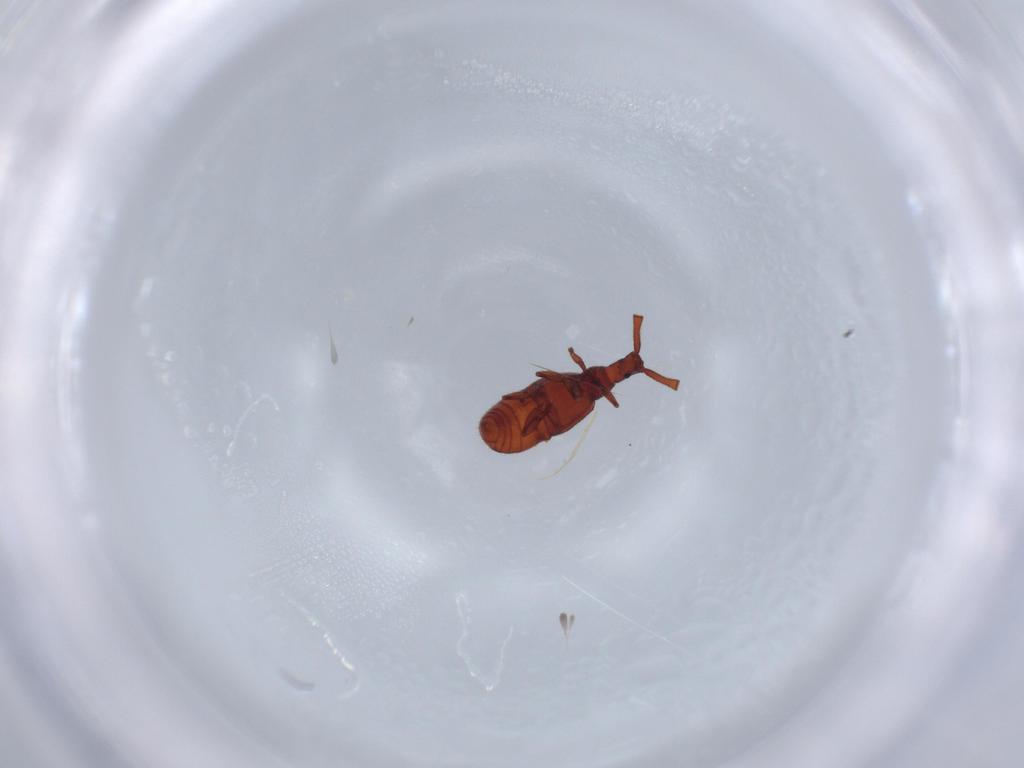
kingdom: Animalia
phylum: Arthropoda
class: Insecta
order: Coleoptera
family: Staphylinidae
